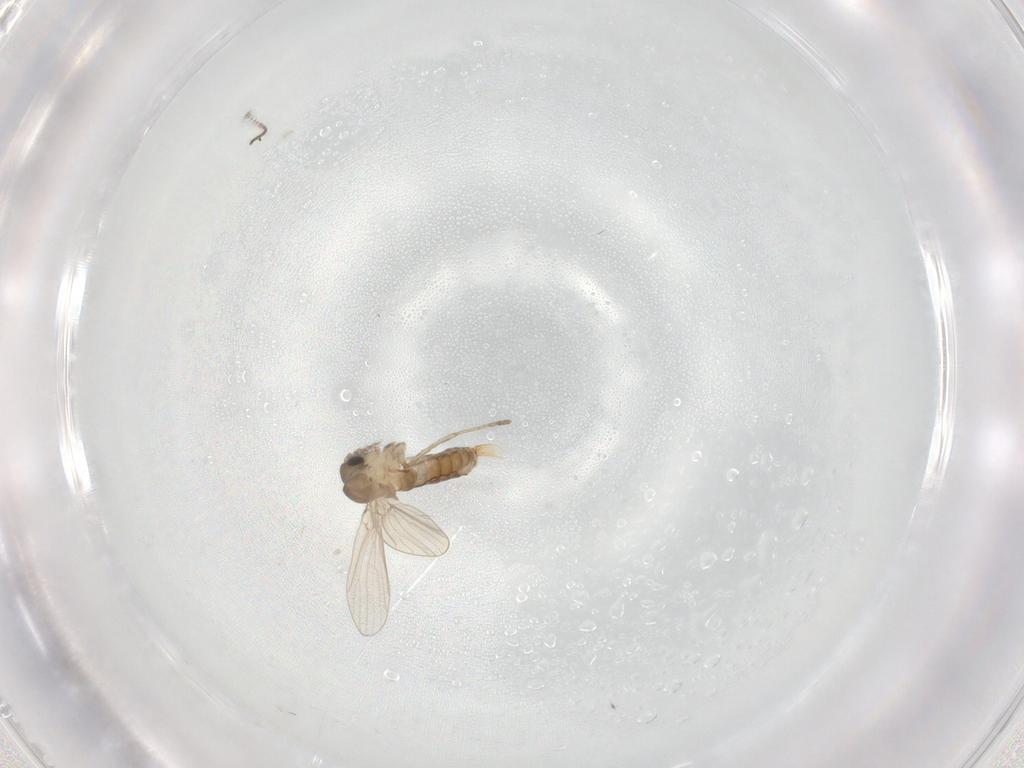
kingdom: Animalia
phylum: Arthropoda
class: Insecta
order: Diptera
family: Psychodidae
